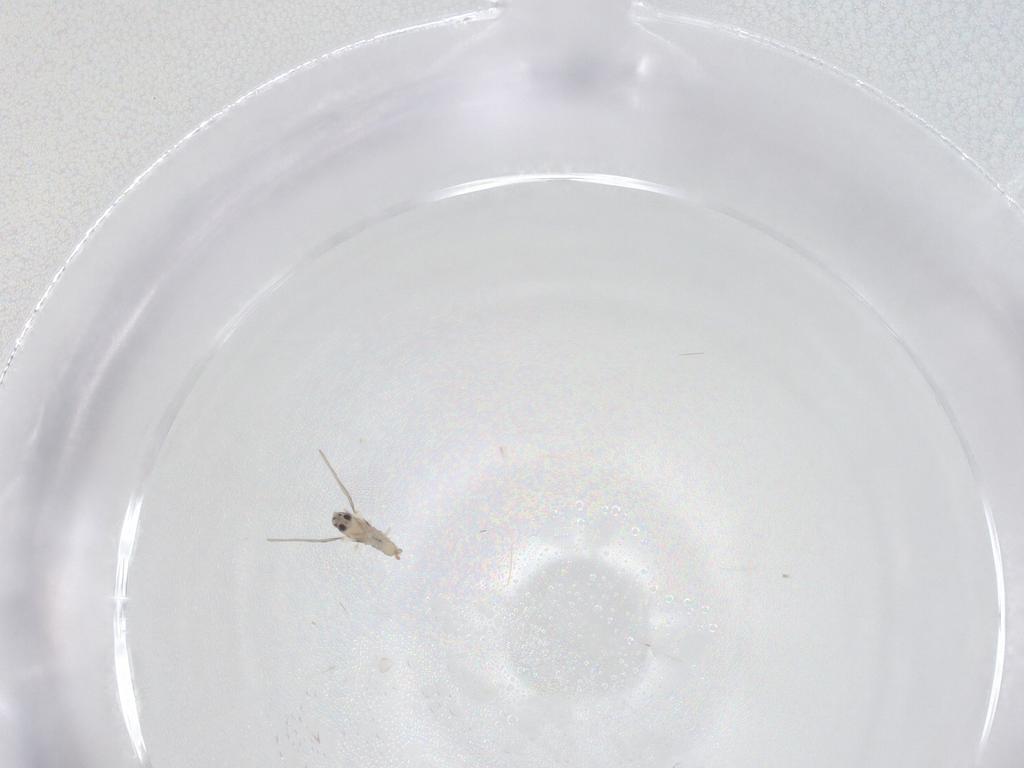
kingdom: Animalia
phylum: Arthropoda
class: Insecta
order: Diptera
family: Cecidomyiidae
